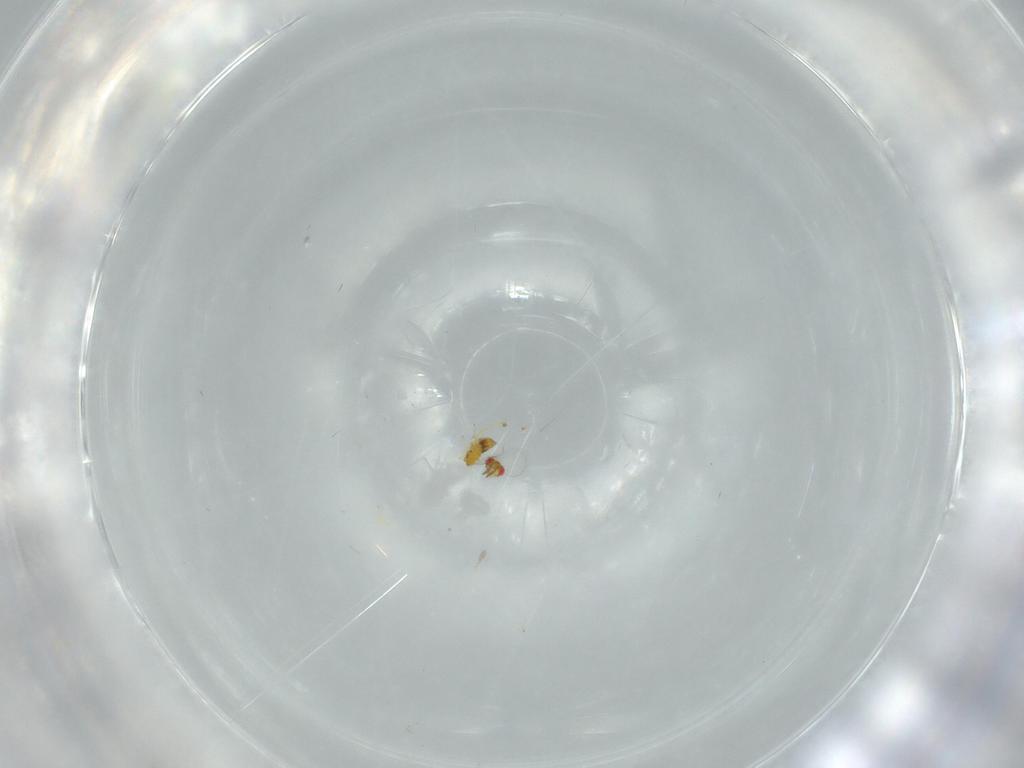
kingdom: Animalia
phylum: Arthropoda
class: Insecta
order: Hymenoptera
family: Trichogrammatidae
